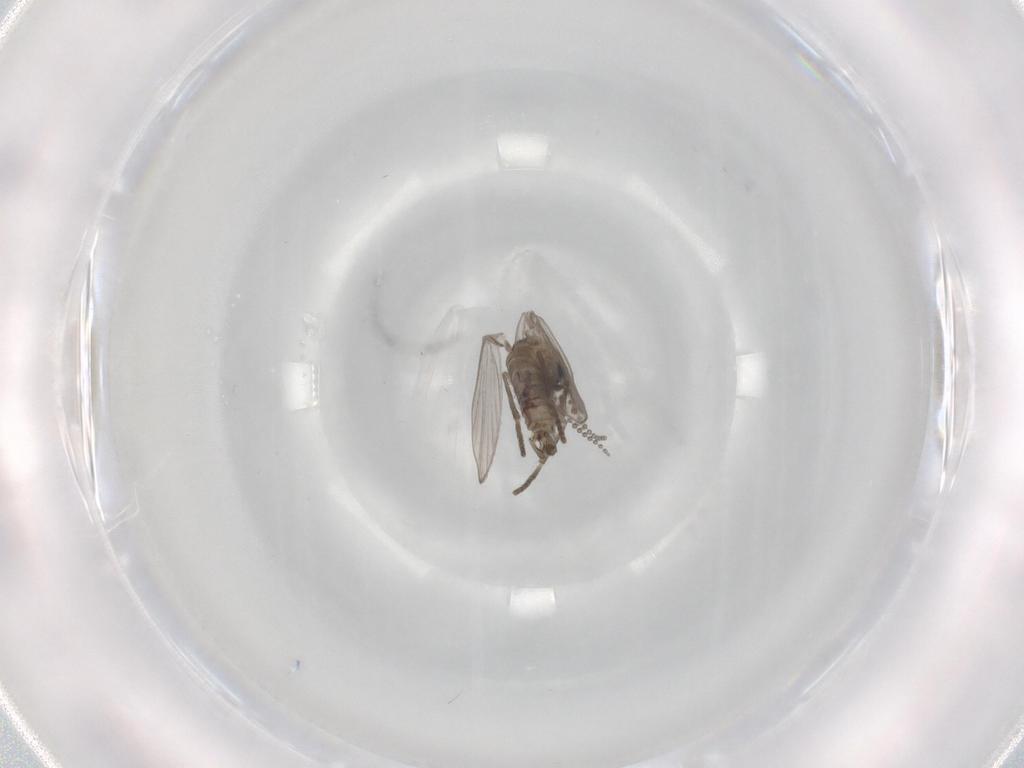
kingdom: Animalia
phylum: Arthropoda
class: Insecta
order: Diptera
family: Psychodidae
